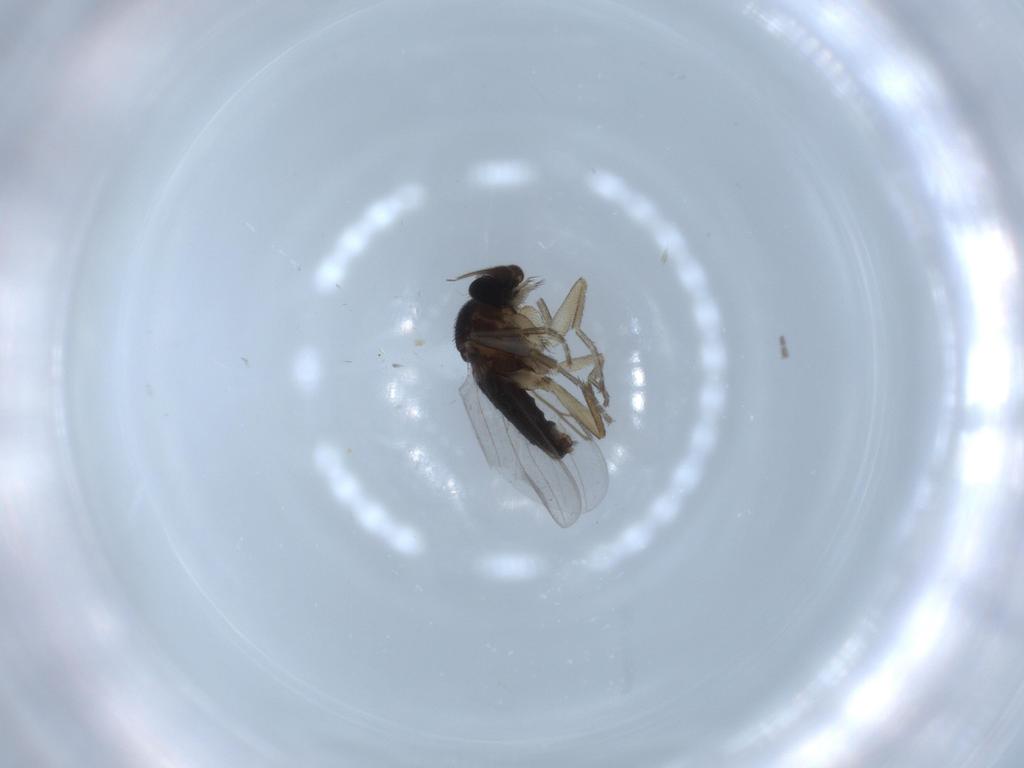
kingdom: Animalia
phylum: Arthropoda
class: Insecta
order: Diptera
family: Phoridae
